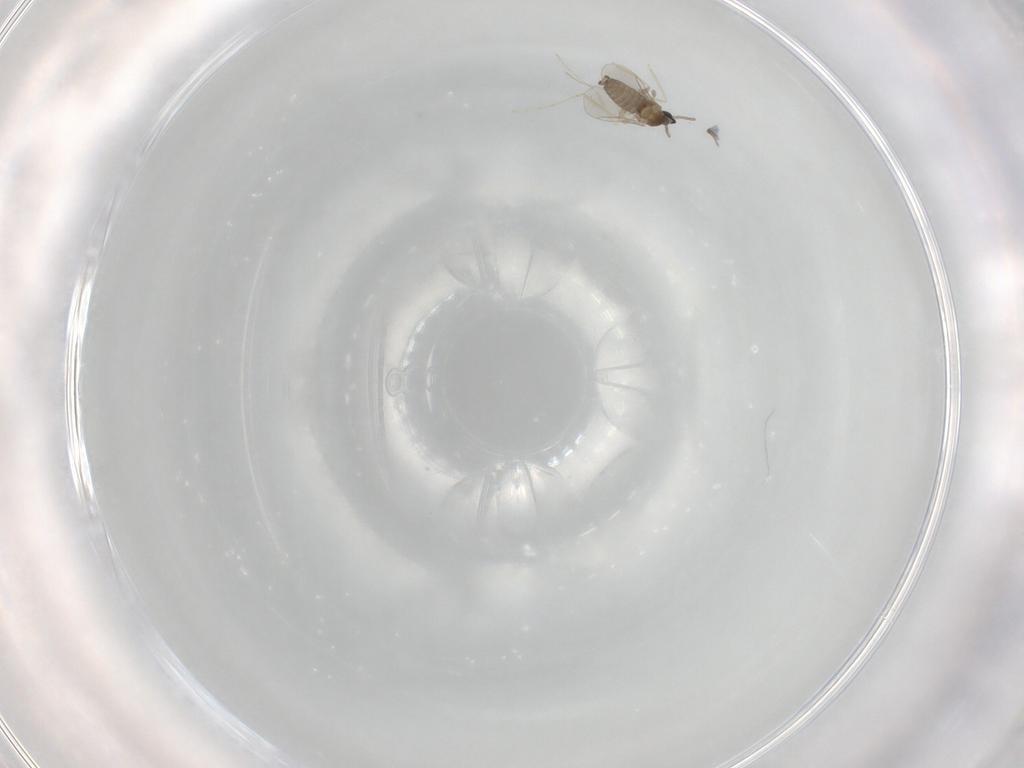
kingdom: Animalia
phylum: Arthropoda
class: Insecta
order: Diptera
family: Cecidomyiidae
